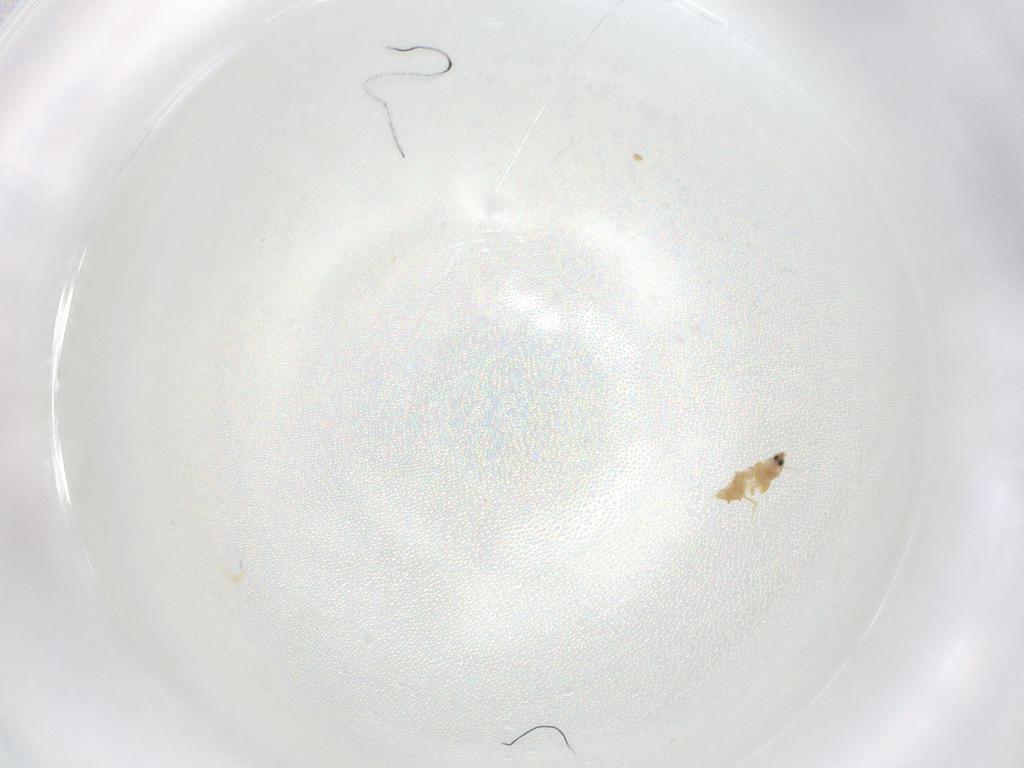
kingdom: Animalia
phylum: Arthropoda
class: Insecta
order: Hemiptera
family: Aleyrodidae
